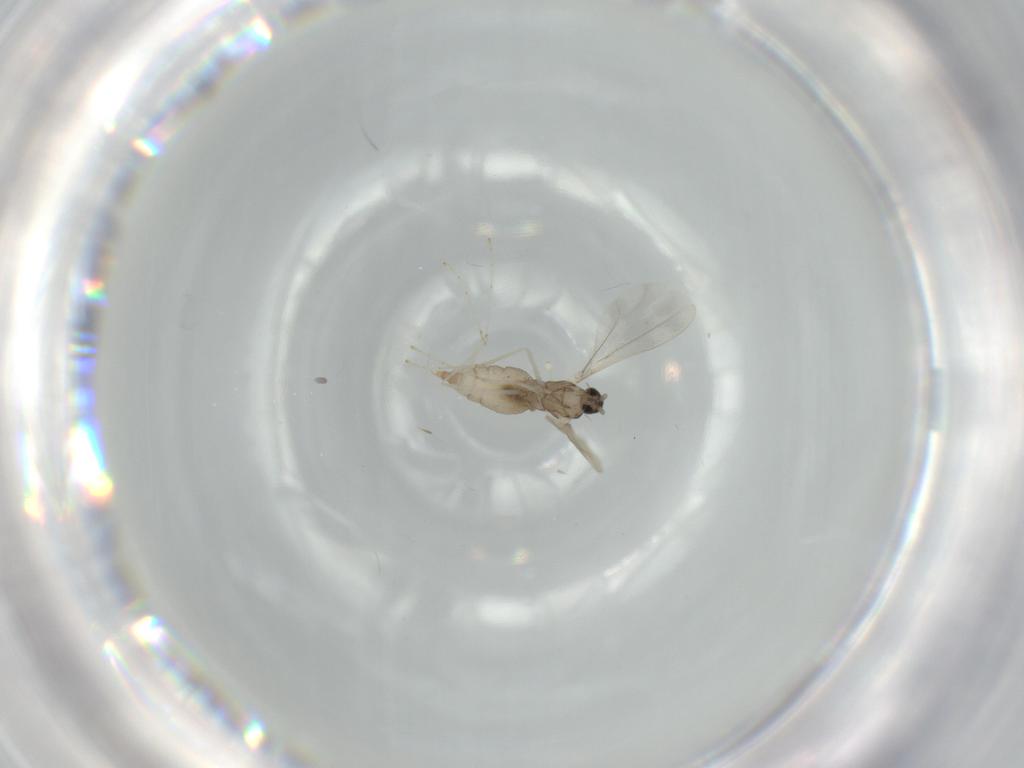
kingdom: Animalia
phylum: Arthropoda
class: Insecta
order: Diptera
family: Cecidomyiidae
